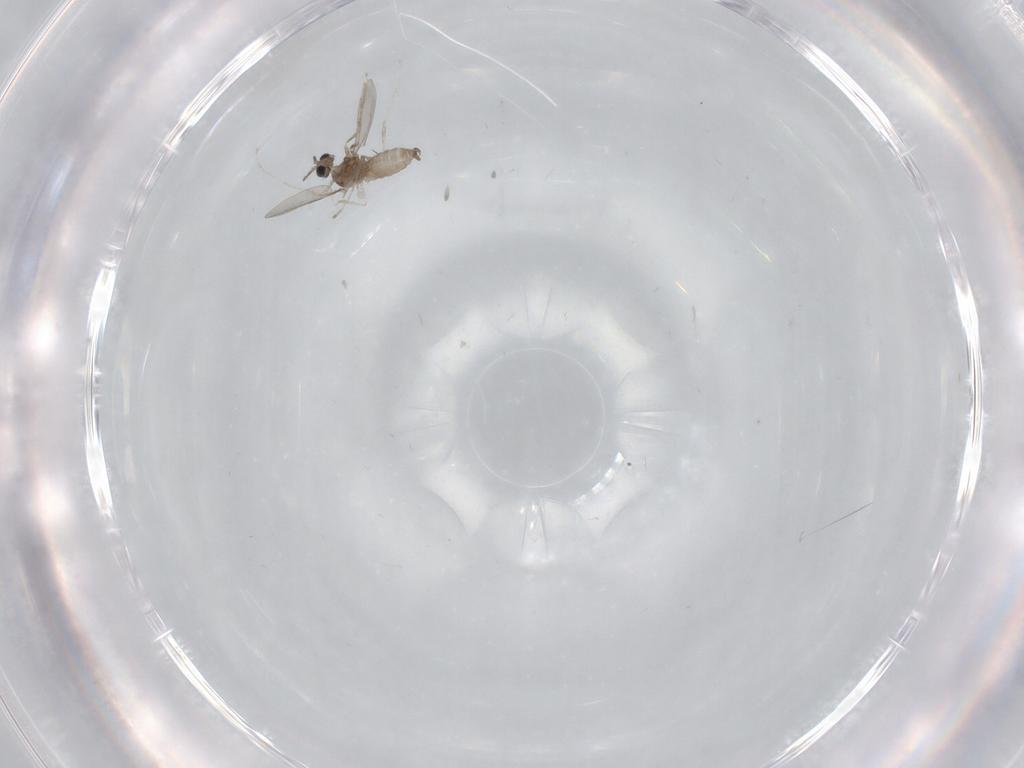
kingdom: Animalia
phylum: Arthropoda
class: Insecta
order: Diptera
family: Cecidomyiidae
